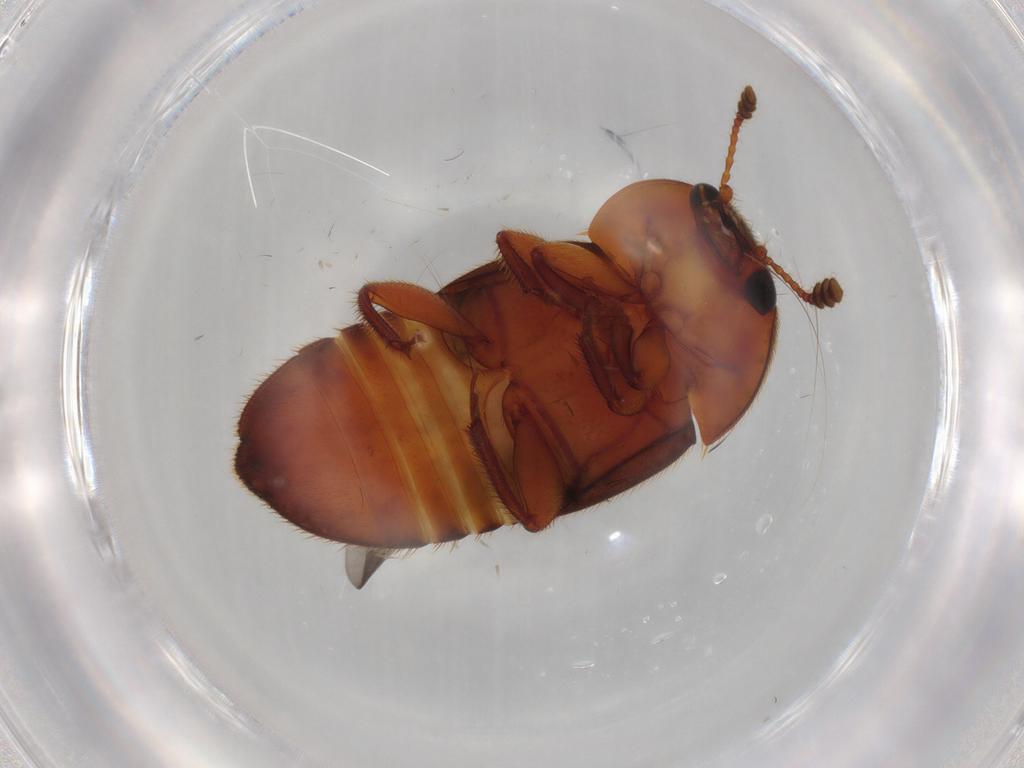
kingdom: Animalia
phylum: Arthropoda
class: Insecta
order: Coleoptera
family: Nitidulidae
